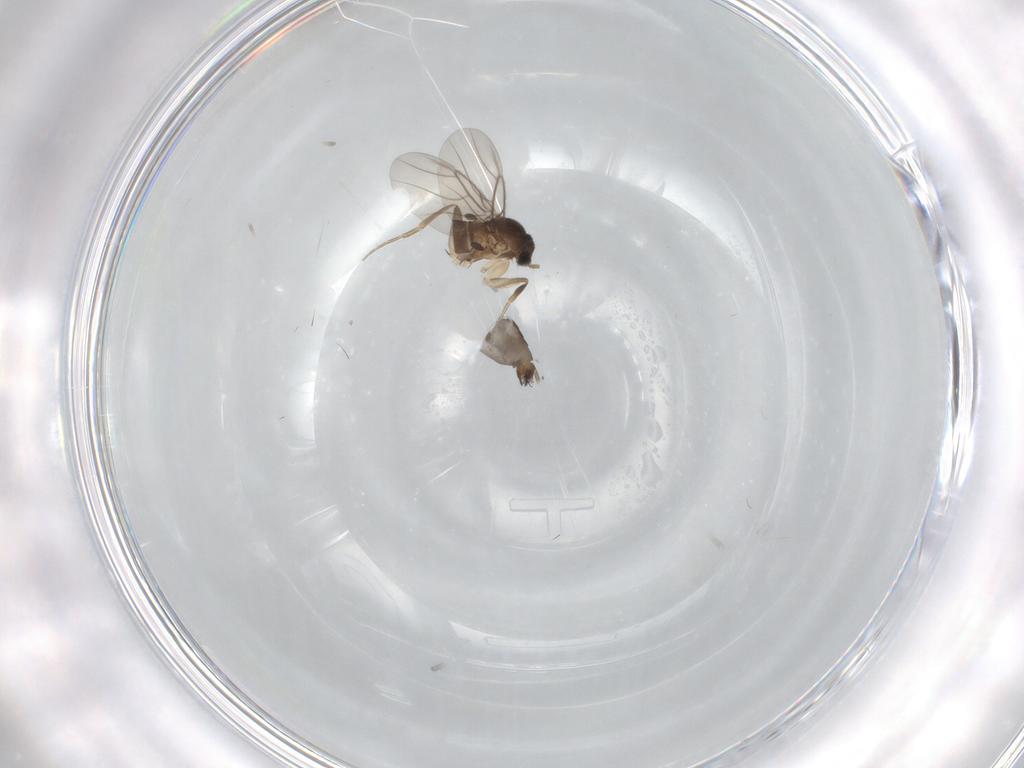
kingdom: Animalia
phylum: Arthropoda
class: Insecta
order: Diptera
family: Phoridae
